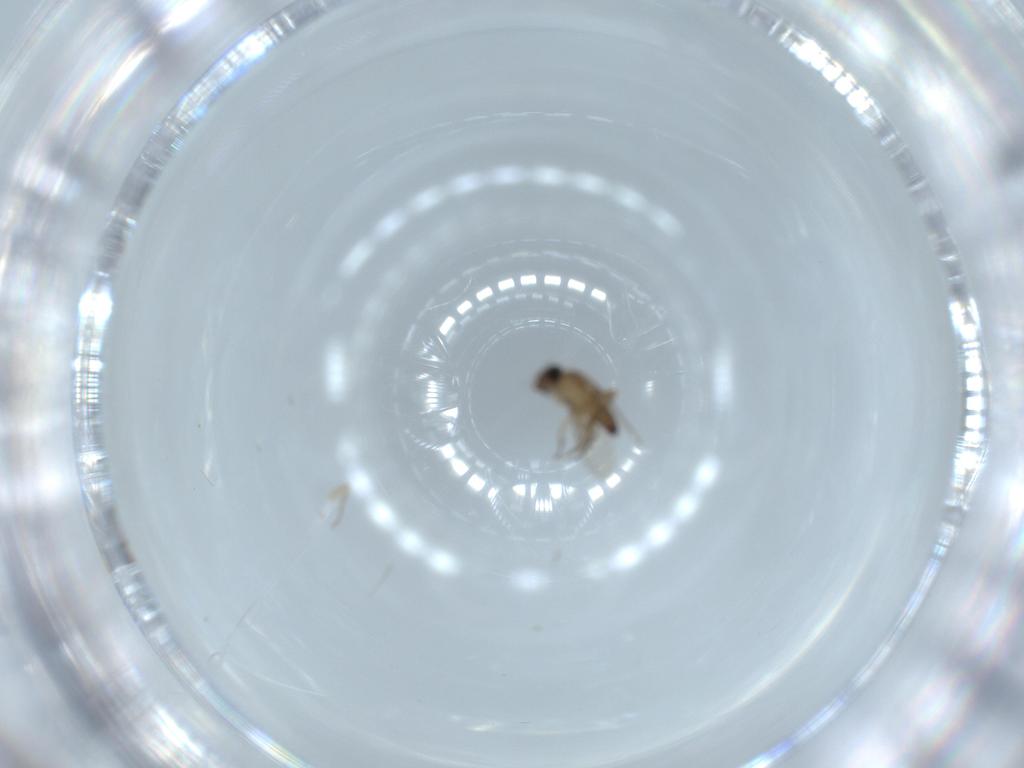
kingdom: Animalia
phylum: Arthropoda
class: Insecta
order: Diptera
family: Phoridae
